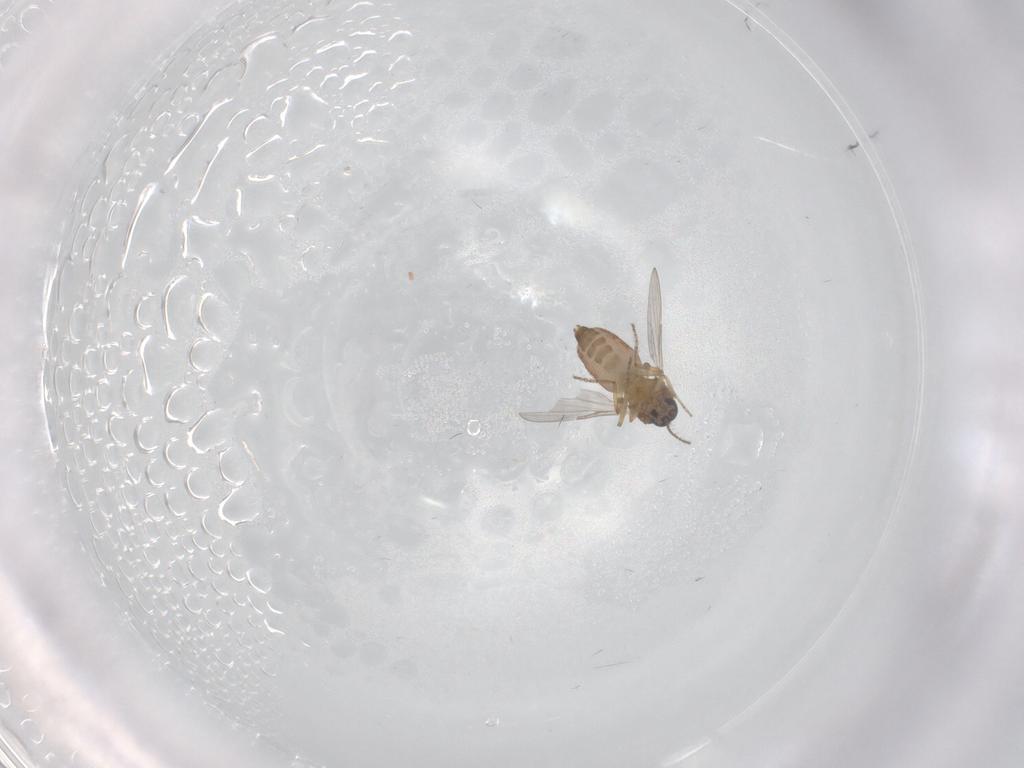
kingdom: Animalia
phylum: Arthropoda
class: Insecta
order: Diptera
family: Ceratopogonidae
